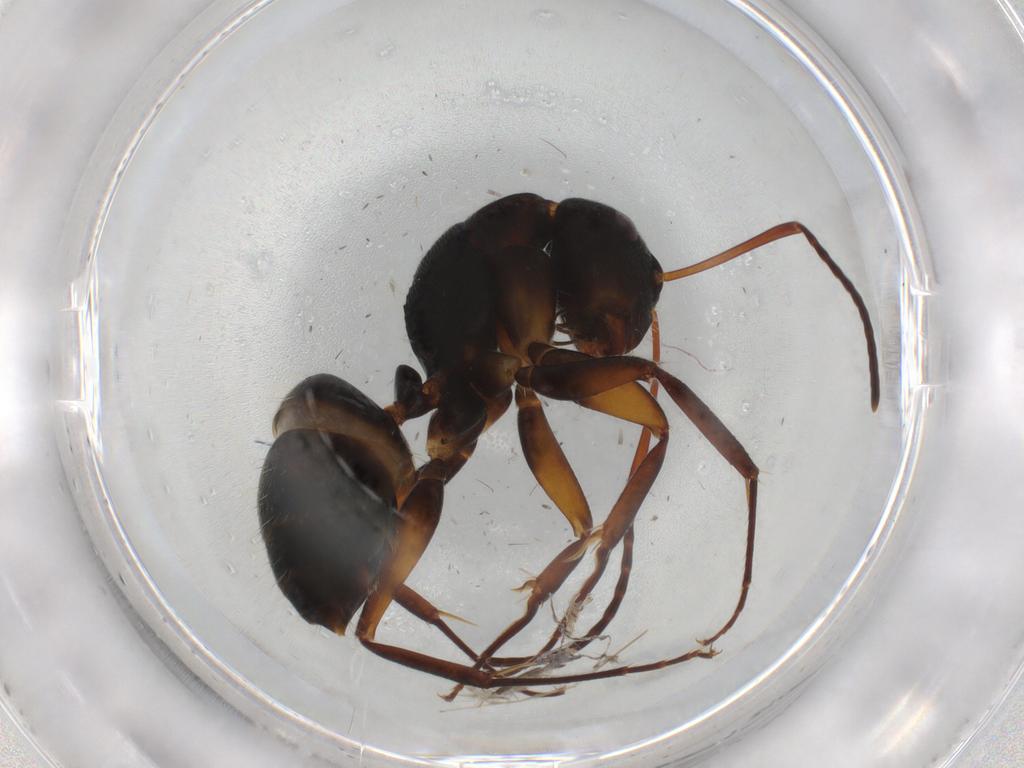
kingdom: Animalia
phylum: Arthropoda
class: Insecta
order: Hymenoptera
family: Formicidae
